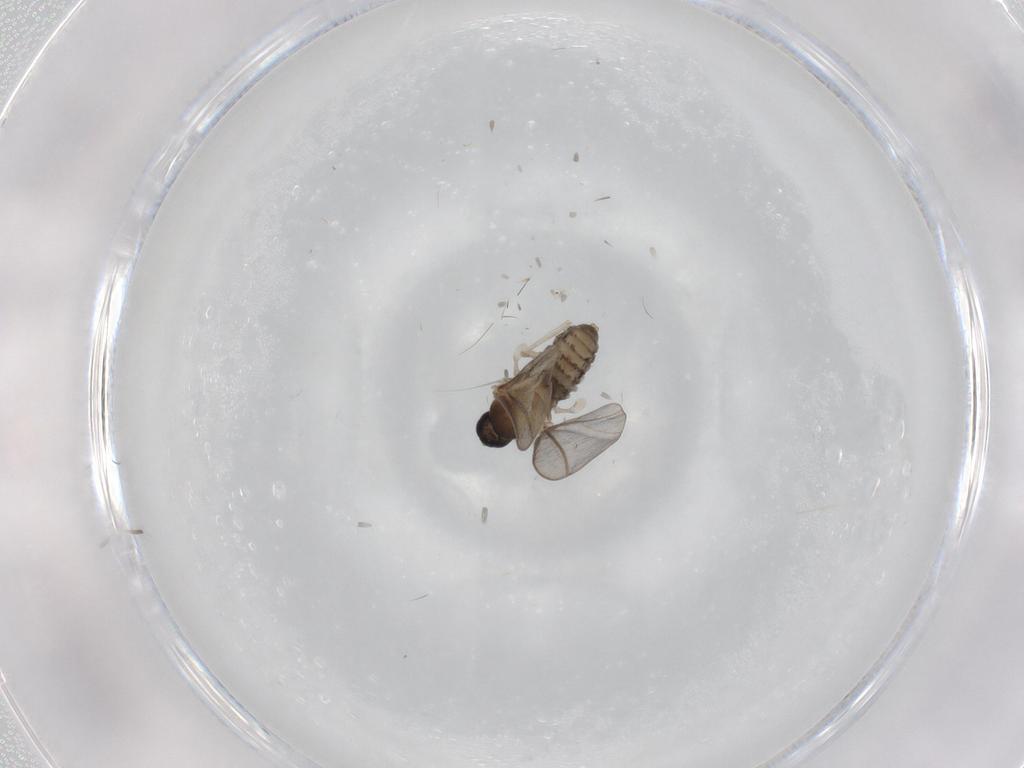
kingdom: Animalia
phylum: Arthropoda
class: Insecta
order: Diptera
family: Cecidomyiidae
